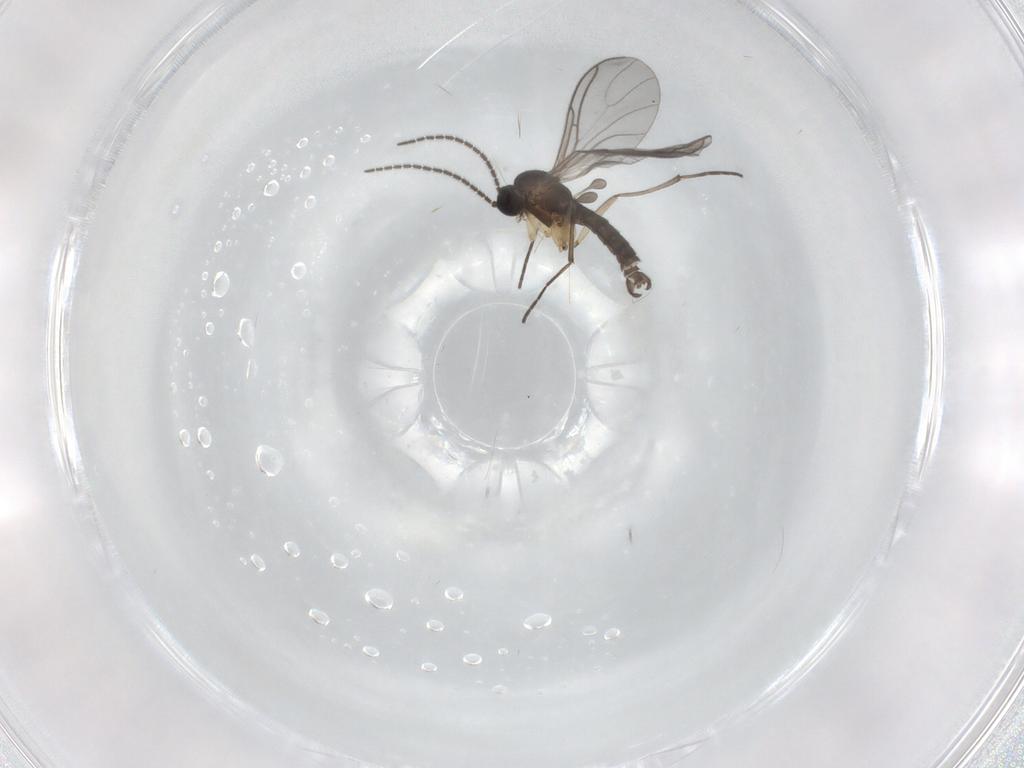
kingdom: Animalia
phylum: Arthropoda
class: Insecta
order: Diptera
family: Sciaridae
